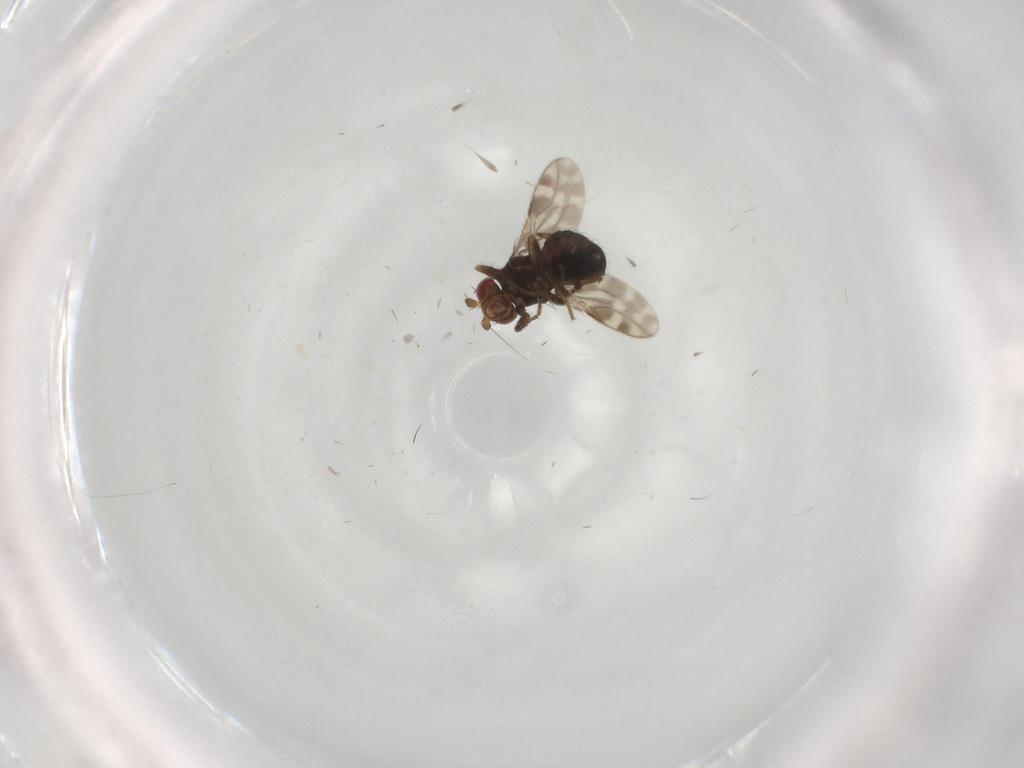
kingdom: Animalia
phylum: Arthropoda
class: Insecta
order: Diptera
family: Sphaeroceridae
